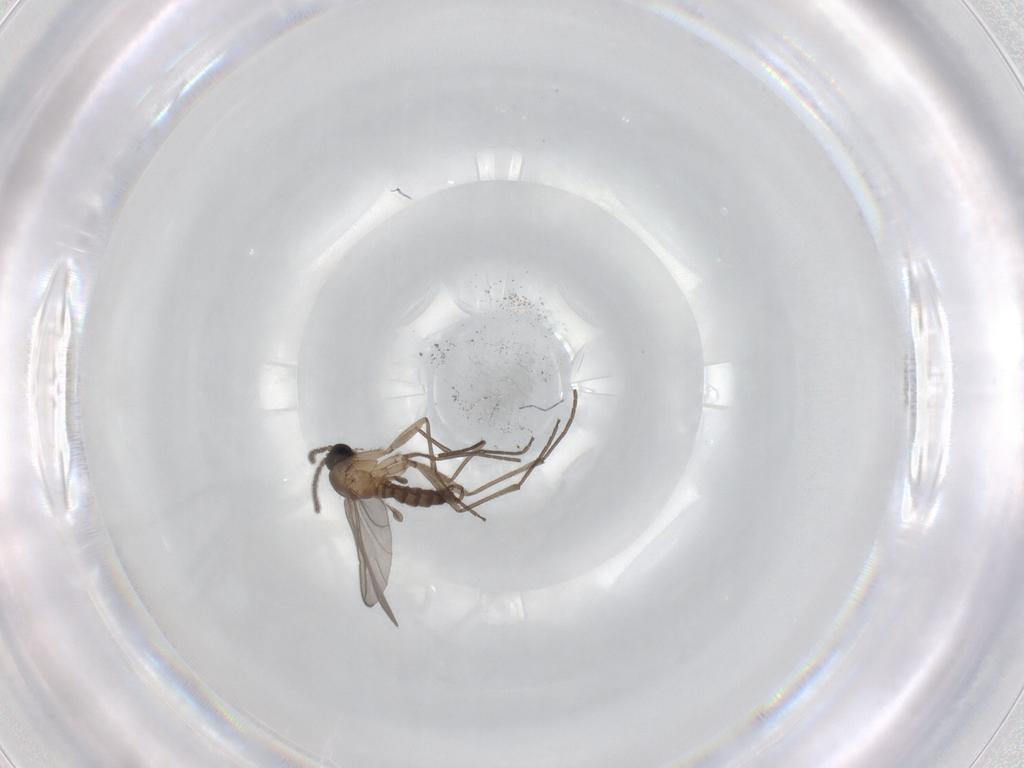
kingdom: Animalia
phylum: Arthropoda
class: Insecta
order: Diptera
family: Sciaridae
